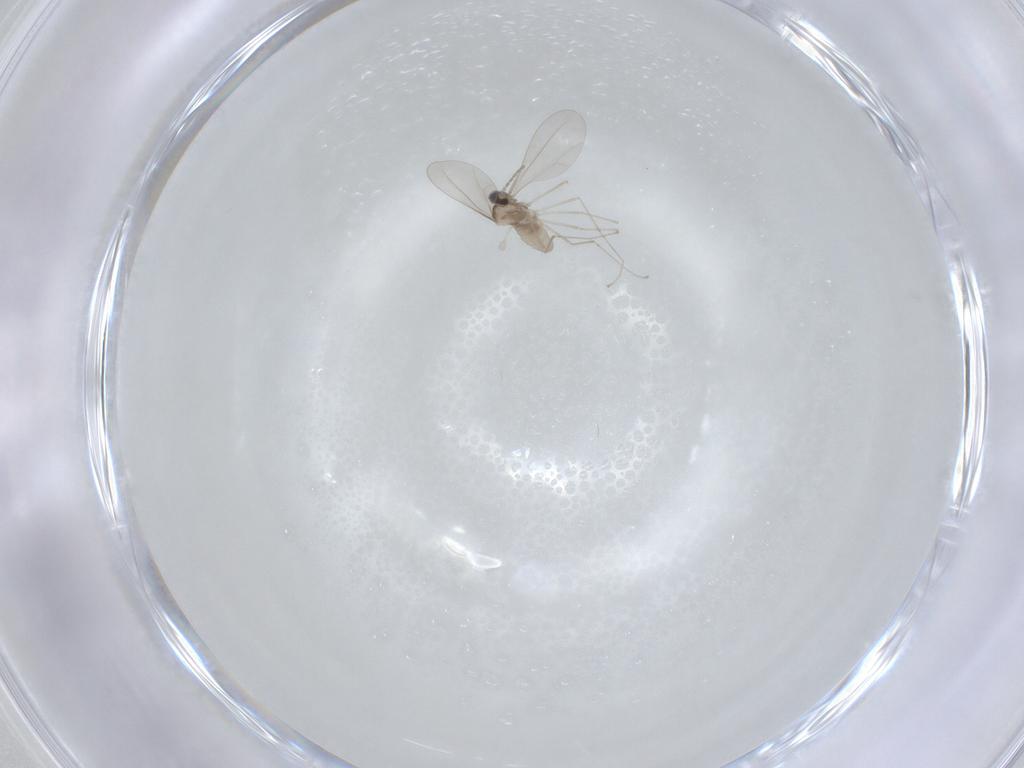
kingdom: Animalia
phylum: Arthropoda
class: Insecta
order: Diptera
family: Cecidomyiidae
